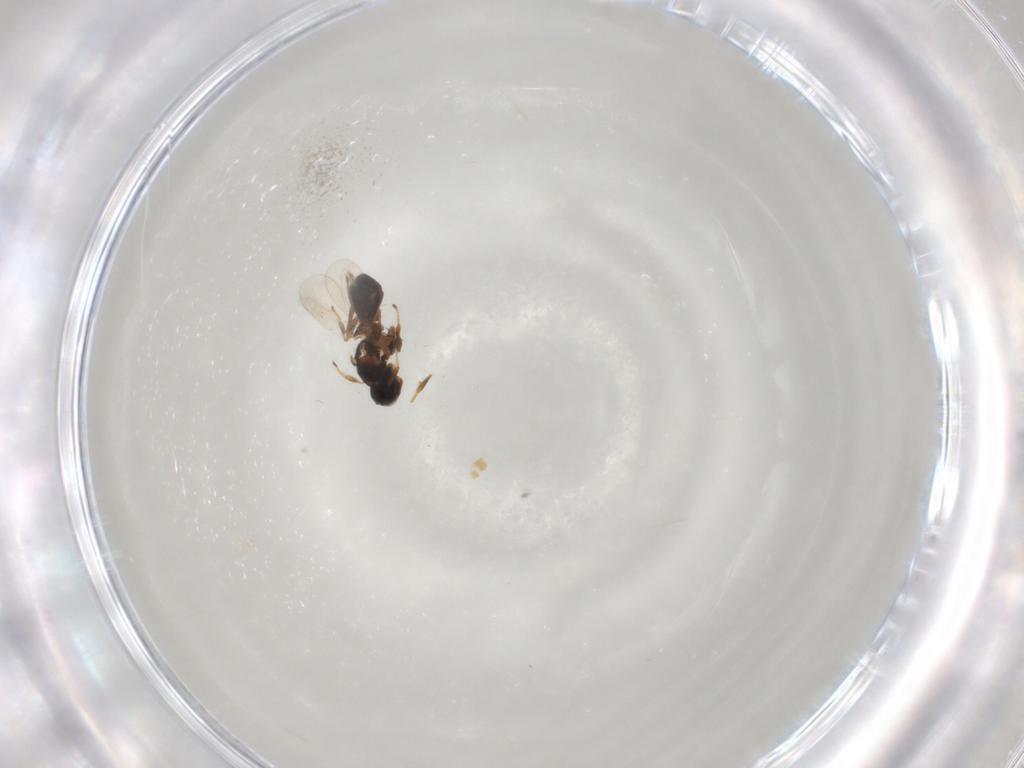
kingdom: Animalia
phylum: Arthropoda
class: Insecta
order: Hymenoptera
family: Platygastridae
